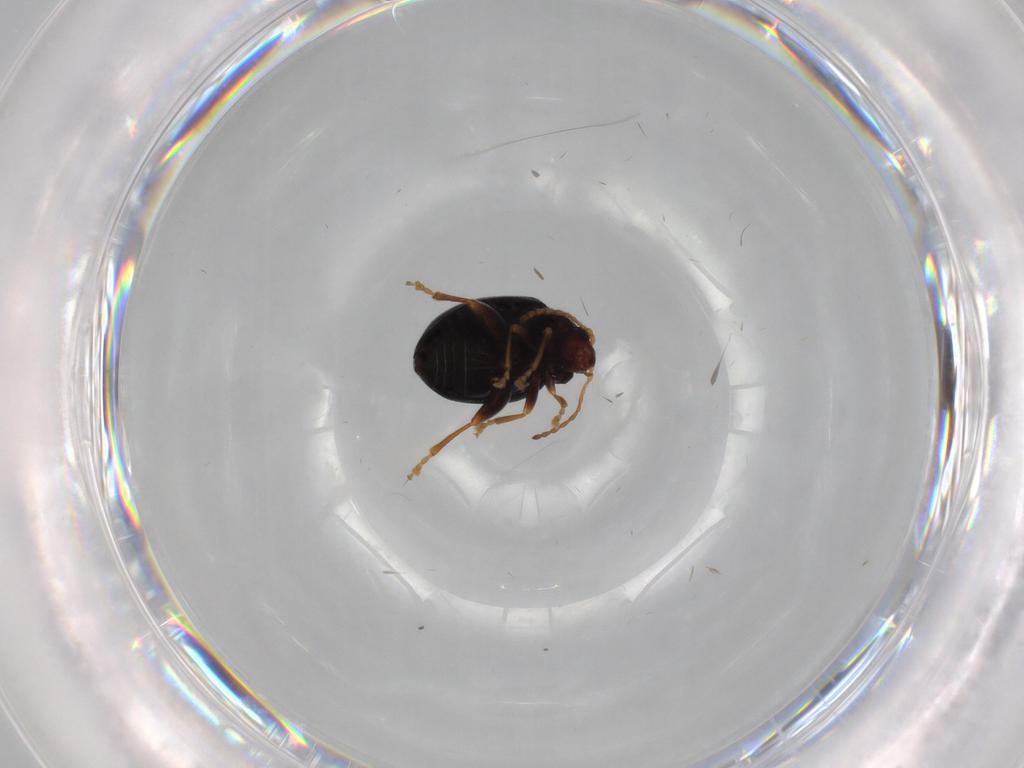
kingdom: Animalia
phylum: Arthropoda
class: Insecta
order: Coleoptera
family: Chrysomelidae
